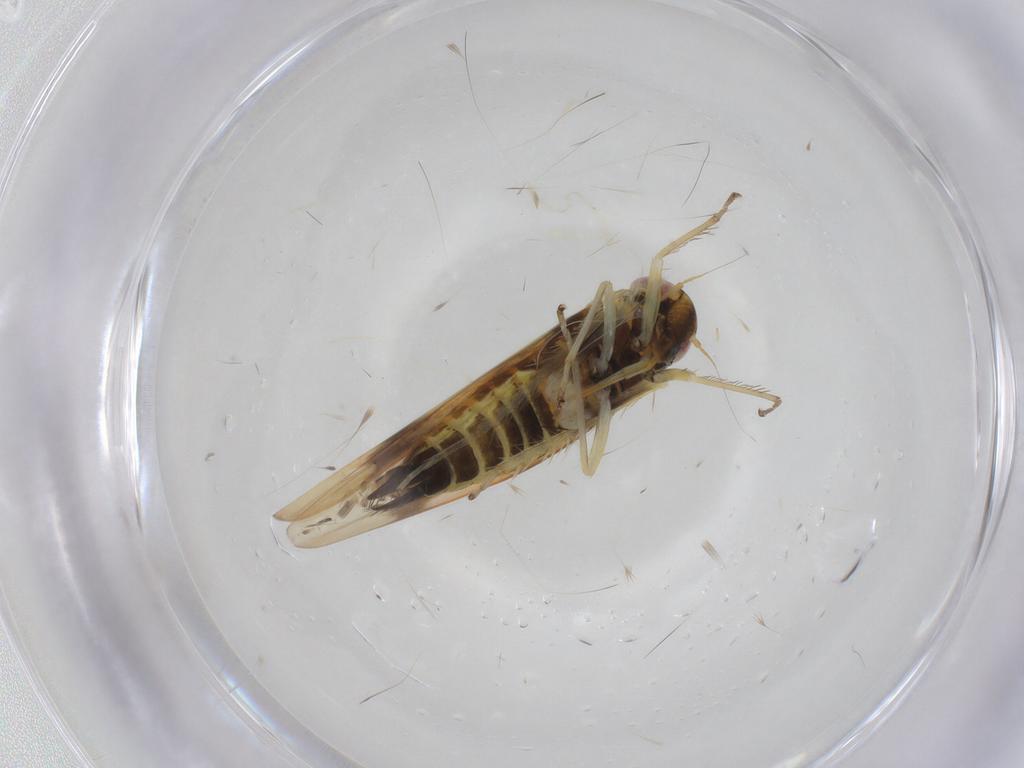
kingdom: Animalia
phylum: Arthropoda
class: Insecta
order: Hemiptera
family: Cicadellidae
